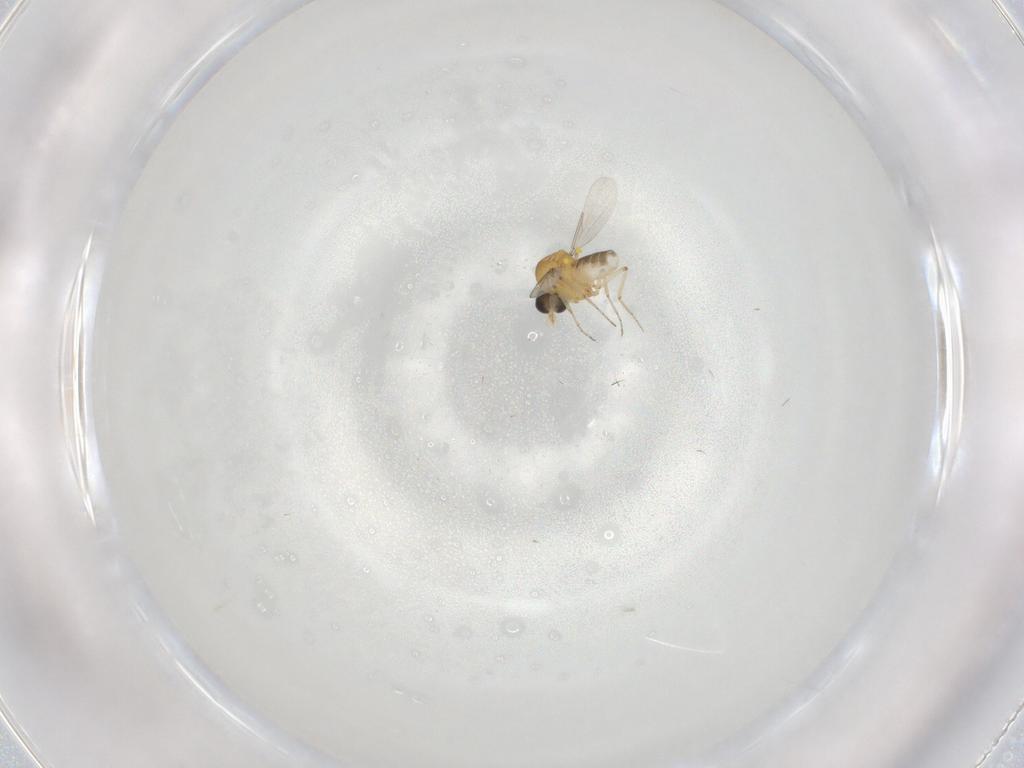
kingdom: Animalia
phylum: Arthropoda
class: Insecta
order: Diptera
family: Ceratopogonidae
